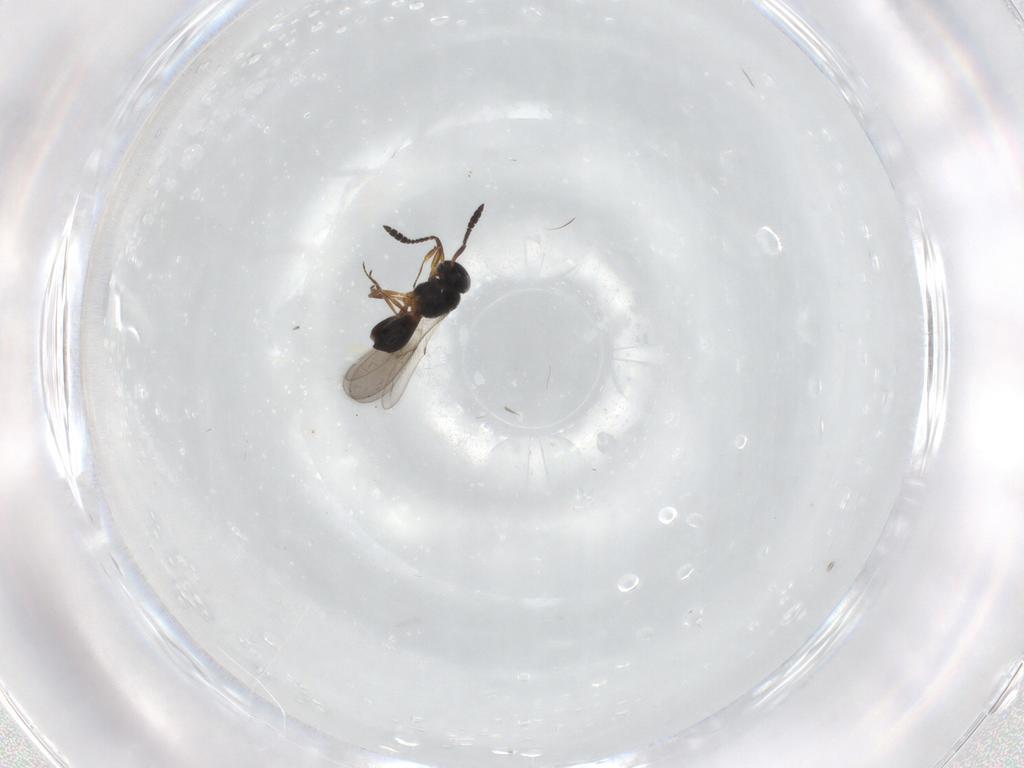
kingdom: Animalia
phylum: Arthropoda
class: Insecta
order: Hymenoptera
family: Scelionidae
